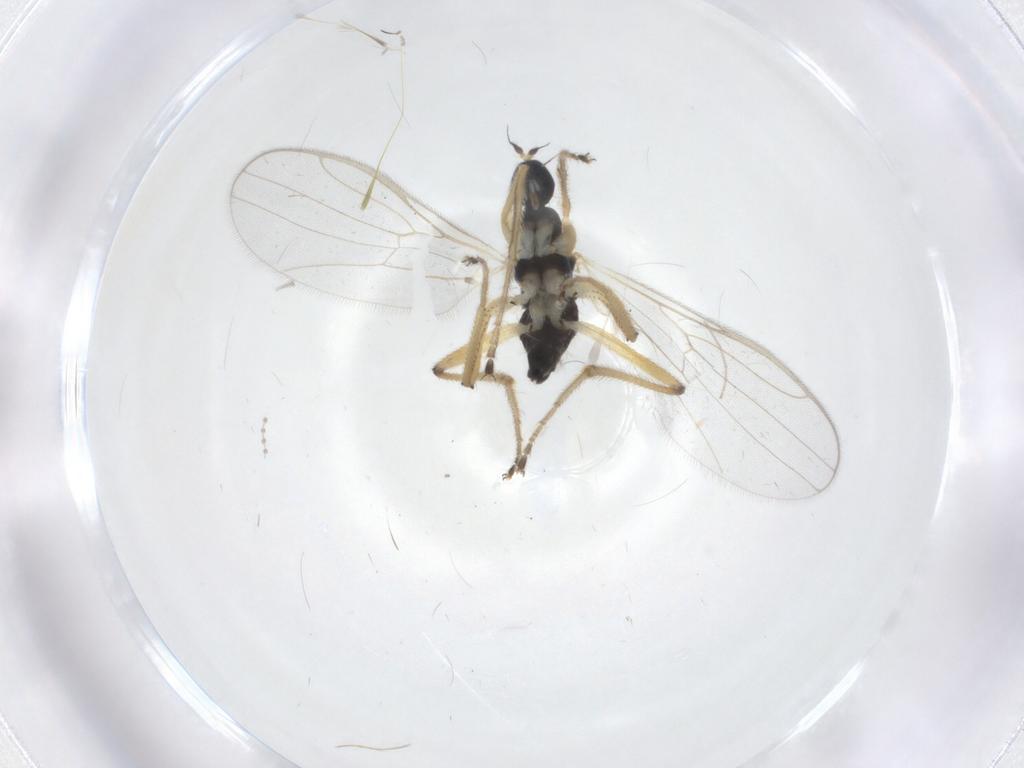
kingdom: Animalia
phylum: Arthropoda
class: Insecta
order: Diptera
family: Hybotidae
